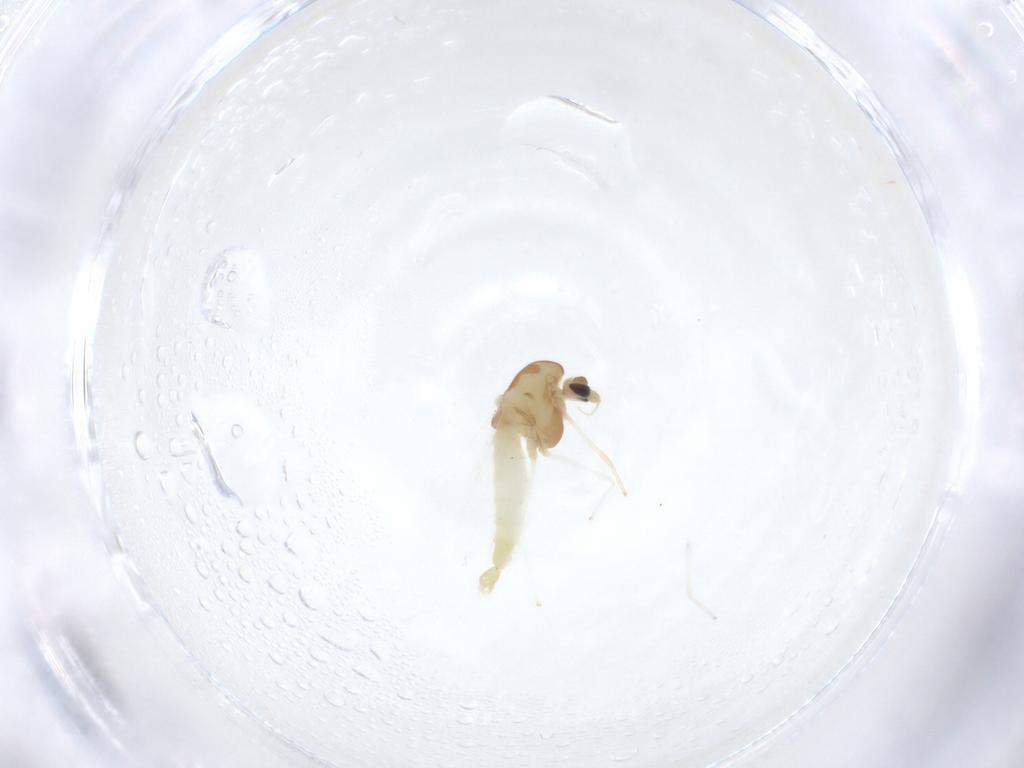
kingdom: Animalia
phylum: Arthropoda
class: Insecta
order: Diptera
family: Chironomidae
